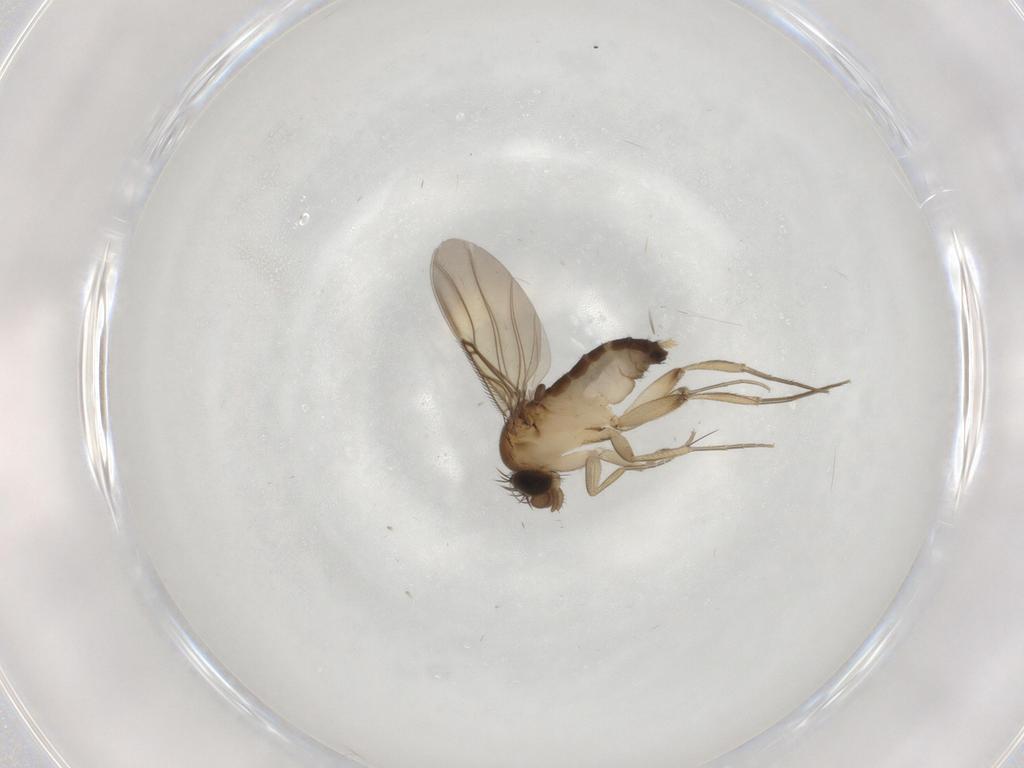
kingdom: Animalia
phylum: Arthropoda
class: Insecta
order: Diptera
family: Phoridae
